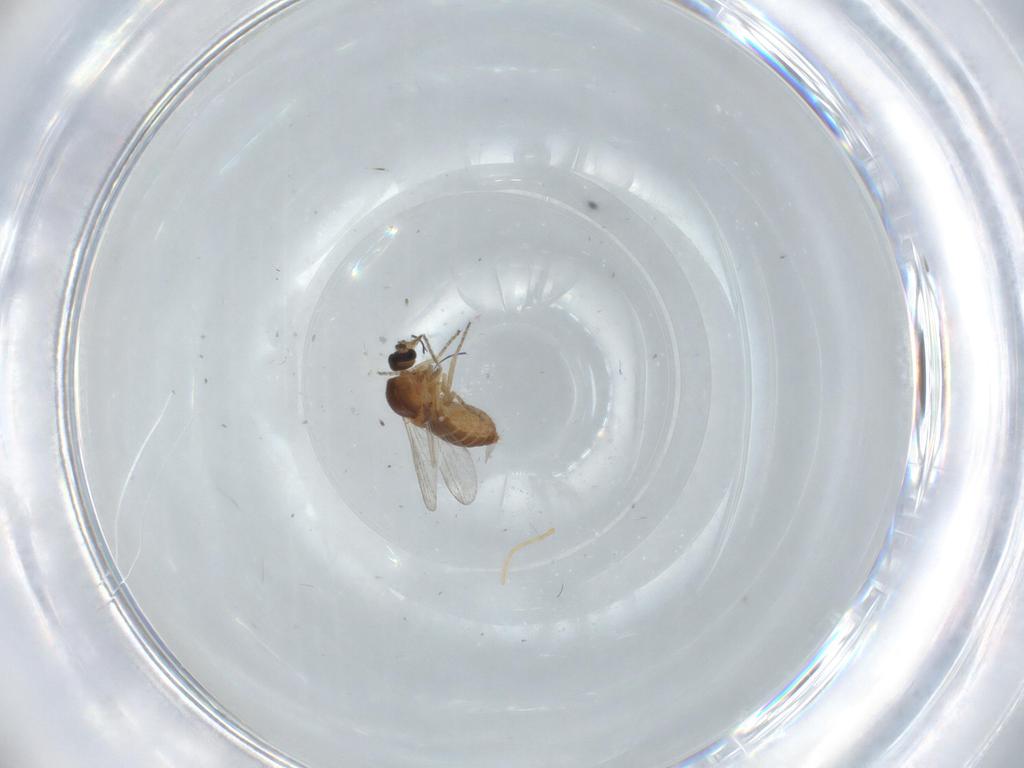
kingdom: Animalia
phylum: Arthropoda
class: Insecta
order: Diptera
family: Ceratopogonidae
